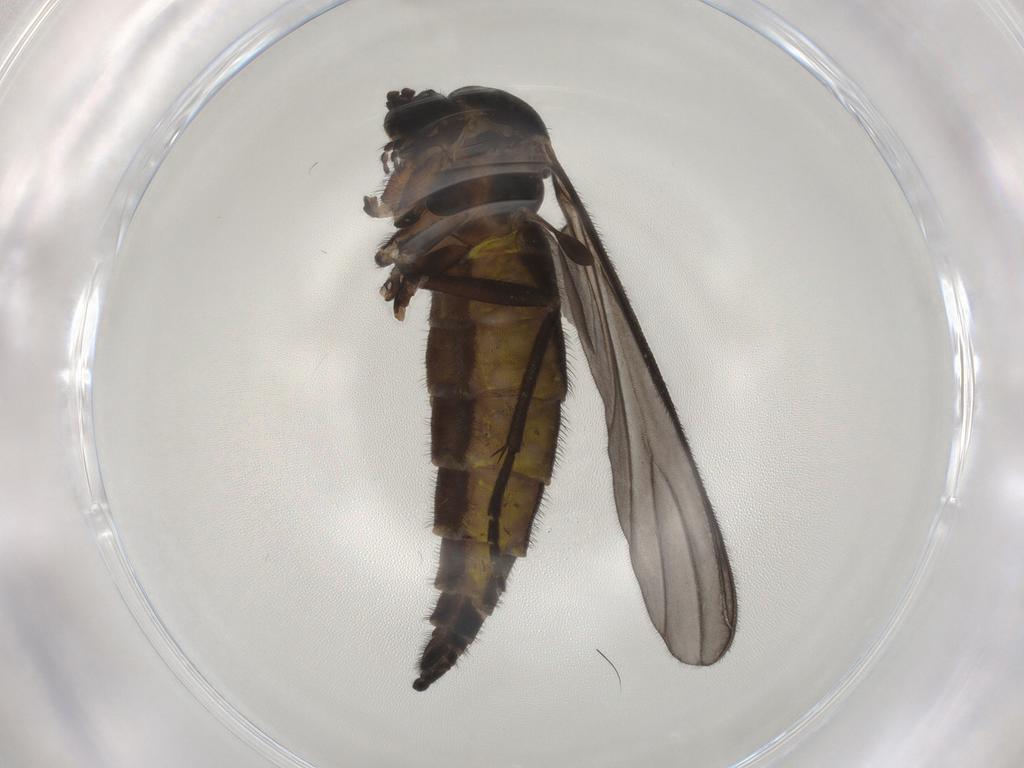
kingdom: Animalia
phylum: Arthropoda
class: Insecta
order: Diptera
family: Sciaridae
